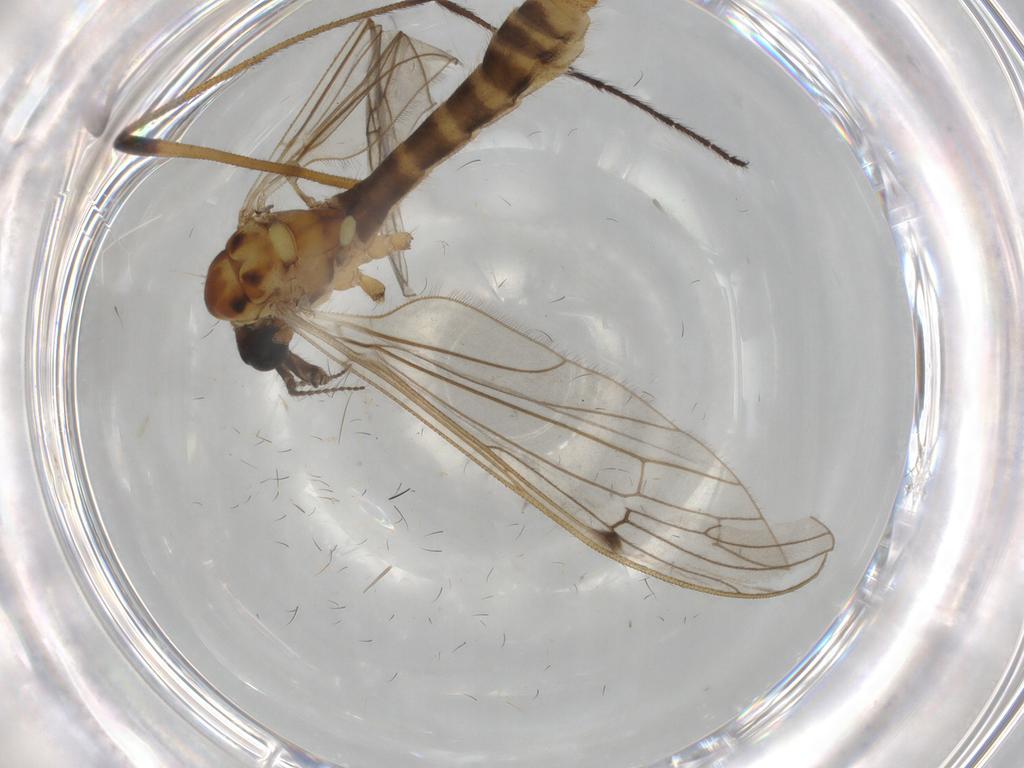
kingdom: Animalia
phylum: Arthropoda
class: Insecta
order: Diptera
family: Limoniidae
